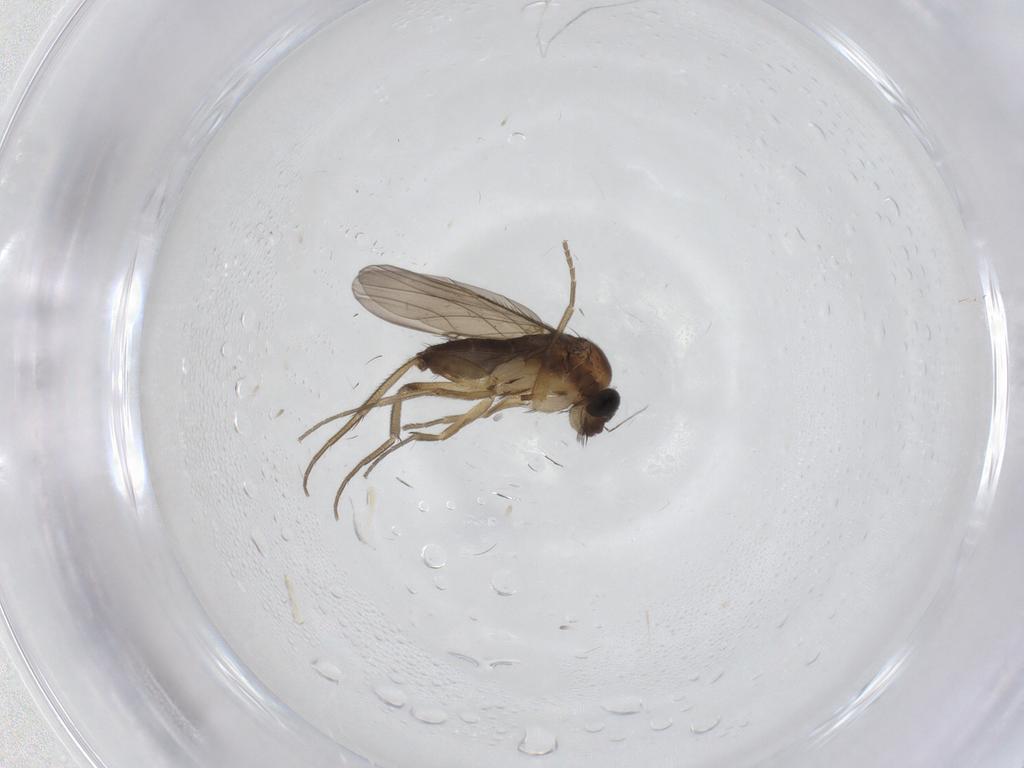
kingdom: Animalia
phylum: Arthropoda
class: Insecta
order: Diptera
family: Phoridae
